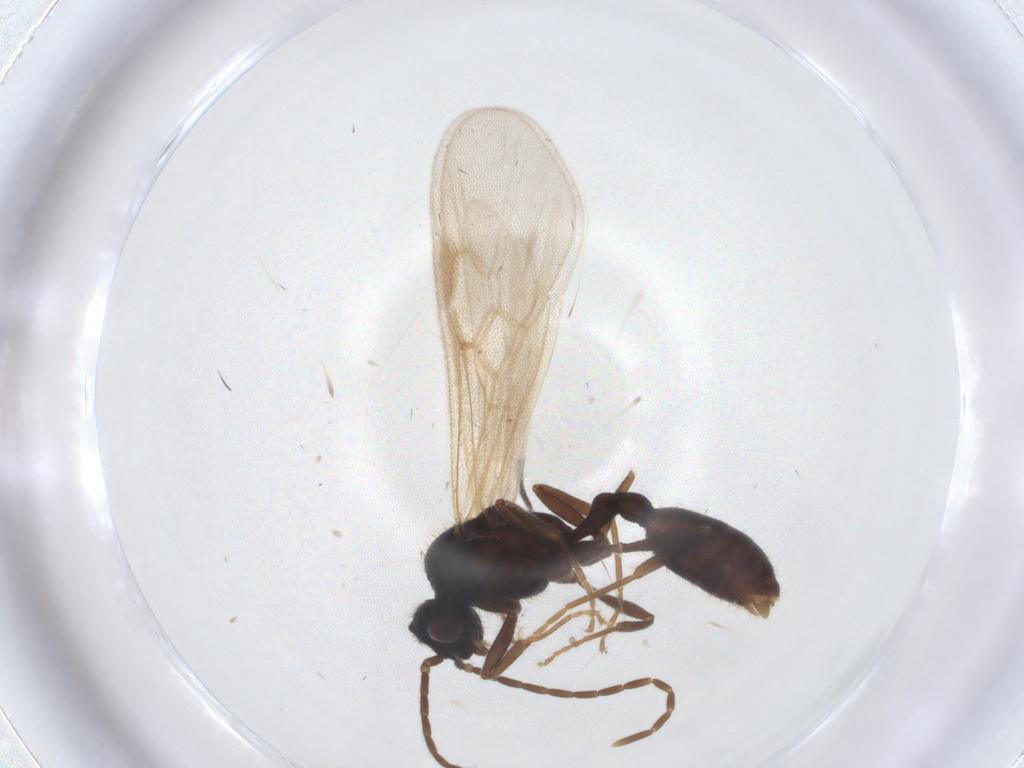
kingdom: Animalia
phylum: Arthropoda
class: Insecta
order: Hymenoptera
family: Formicidae
